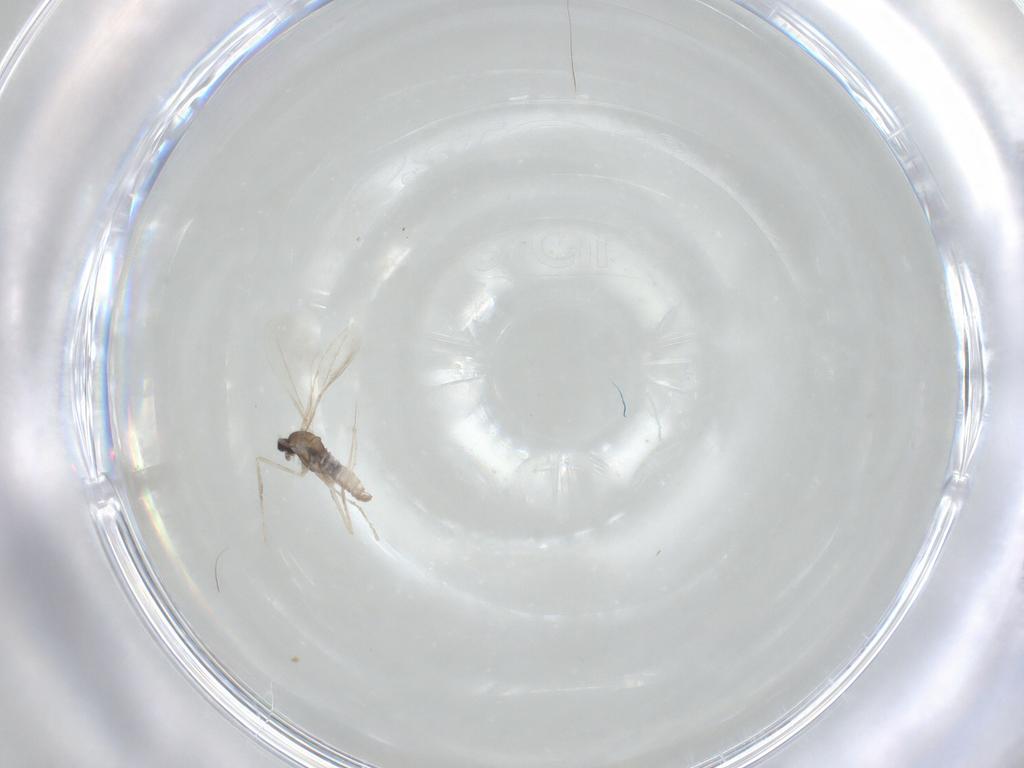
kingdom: Animalia
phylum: Arthropoda
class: Insecta
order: Diptera
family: Cecidomyiidae
